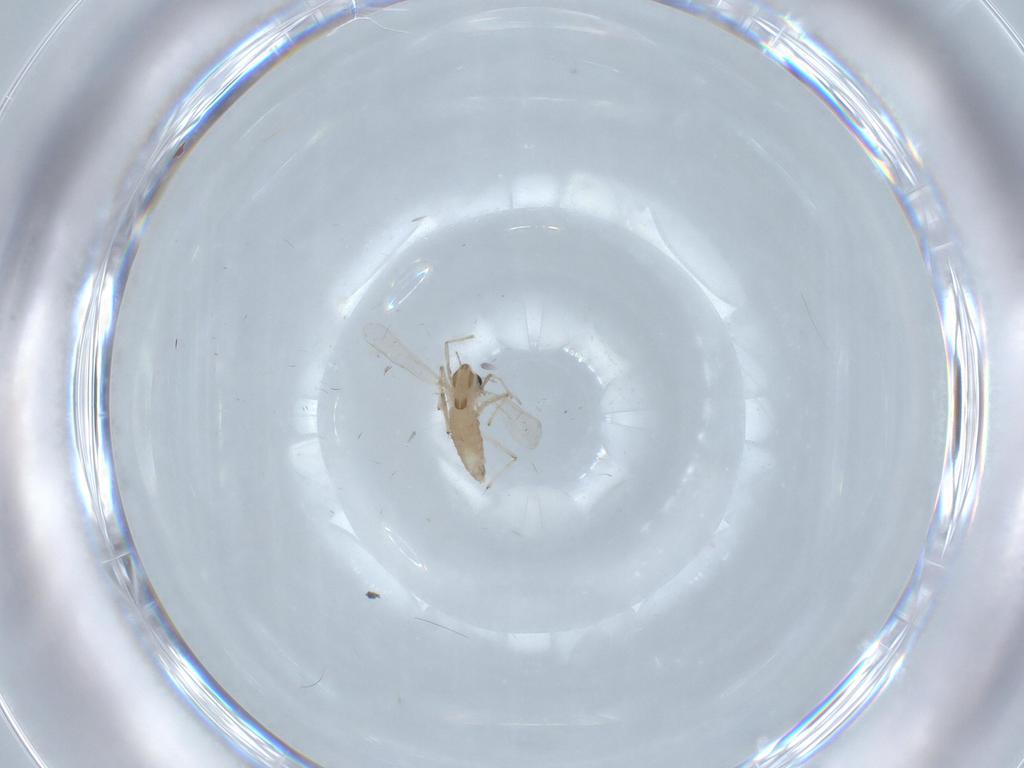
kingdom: Animalia
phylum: Arthropoda
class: Insecta
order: Diptera
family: Chironomidae
